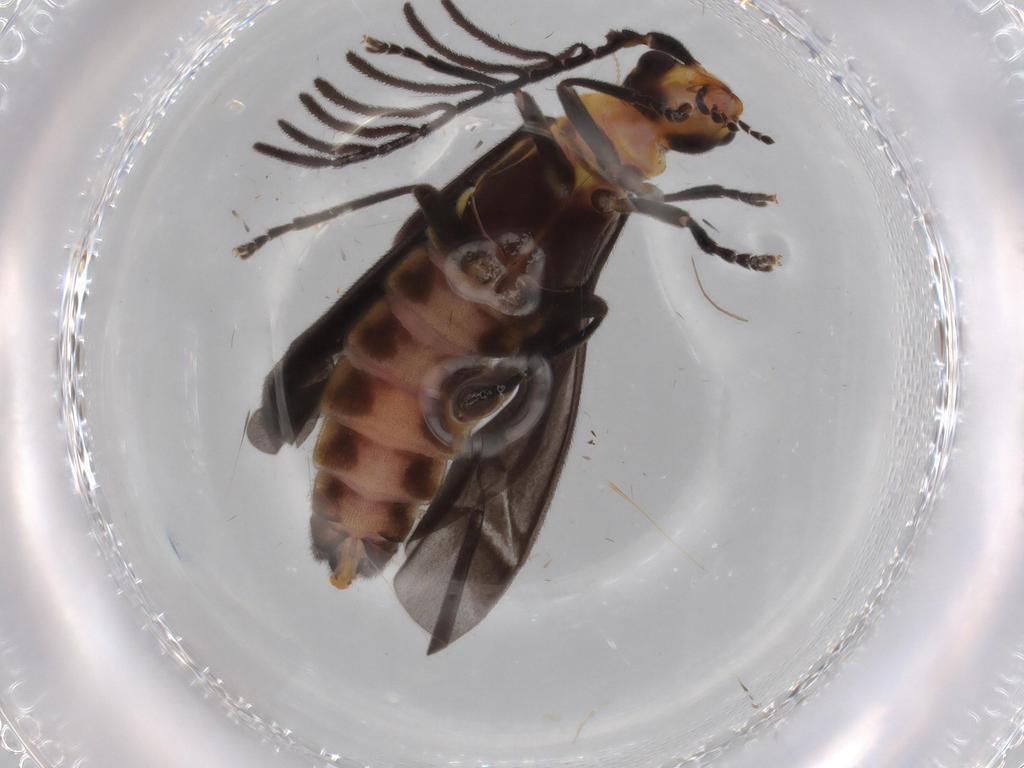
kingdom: Animalia
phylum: Arthropoda
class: Insecta
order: Coleoptera
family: Cantharidae
